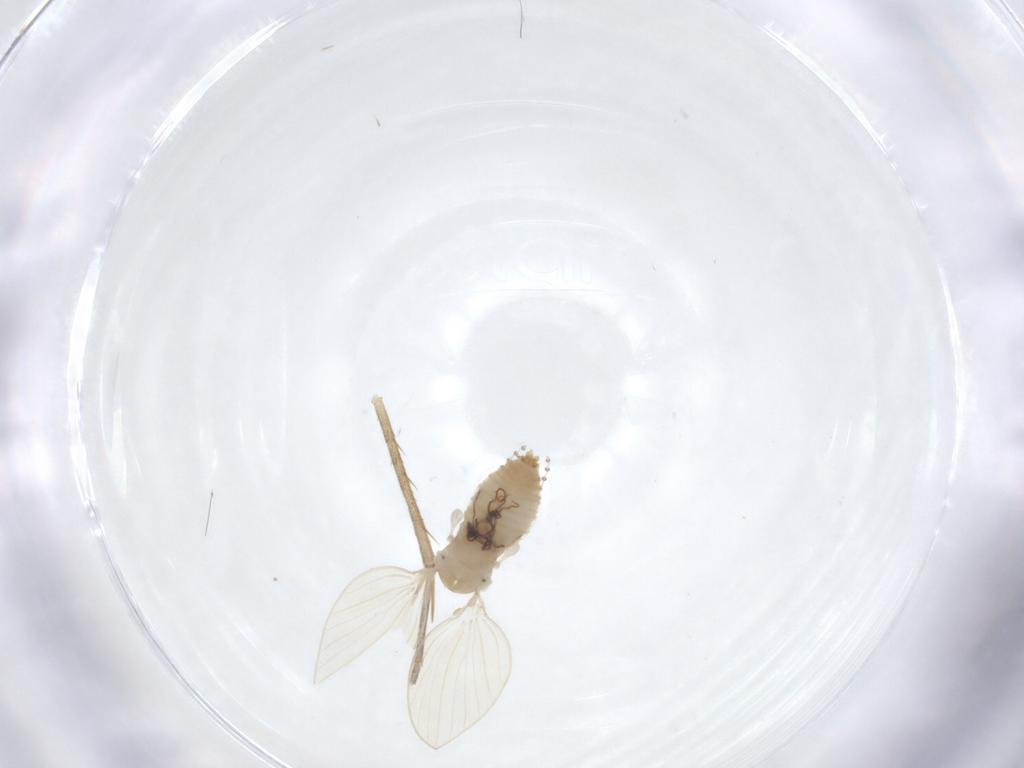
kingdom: Animalia
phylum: Arthropoda
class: Insecta
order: Diptera
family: Psychodidae
